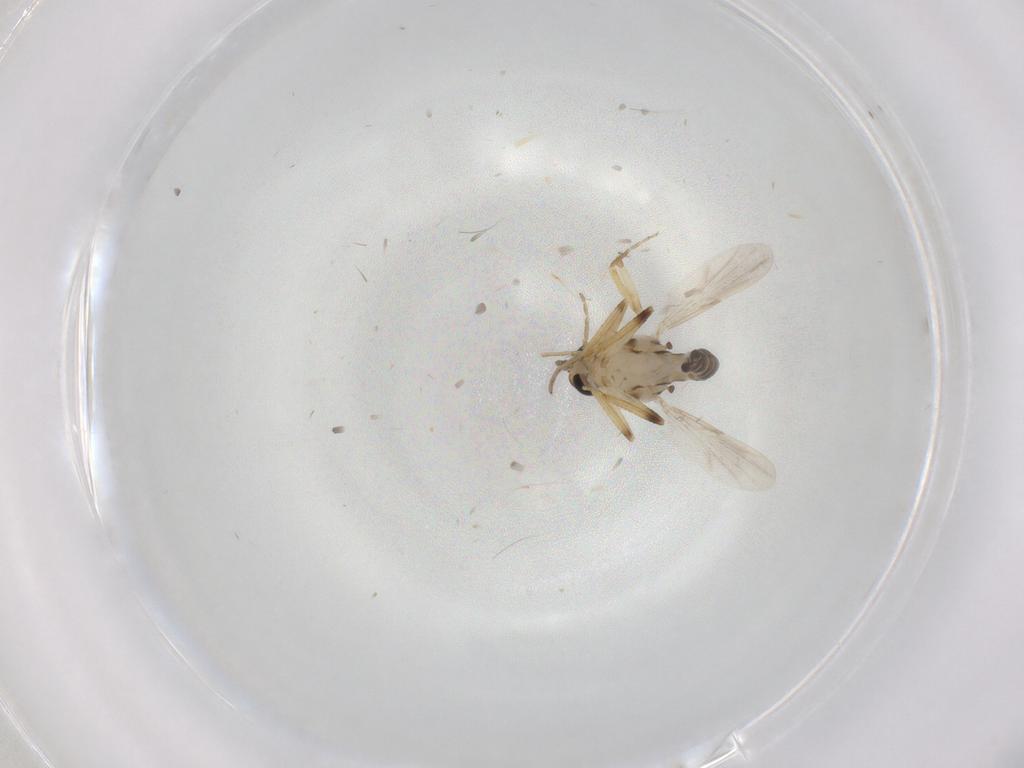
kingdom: Animalia
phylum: Arthropoda
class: Insecta
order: Diptera
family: Ceratopogonidae
